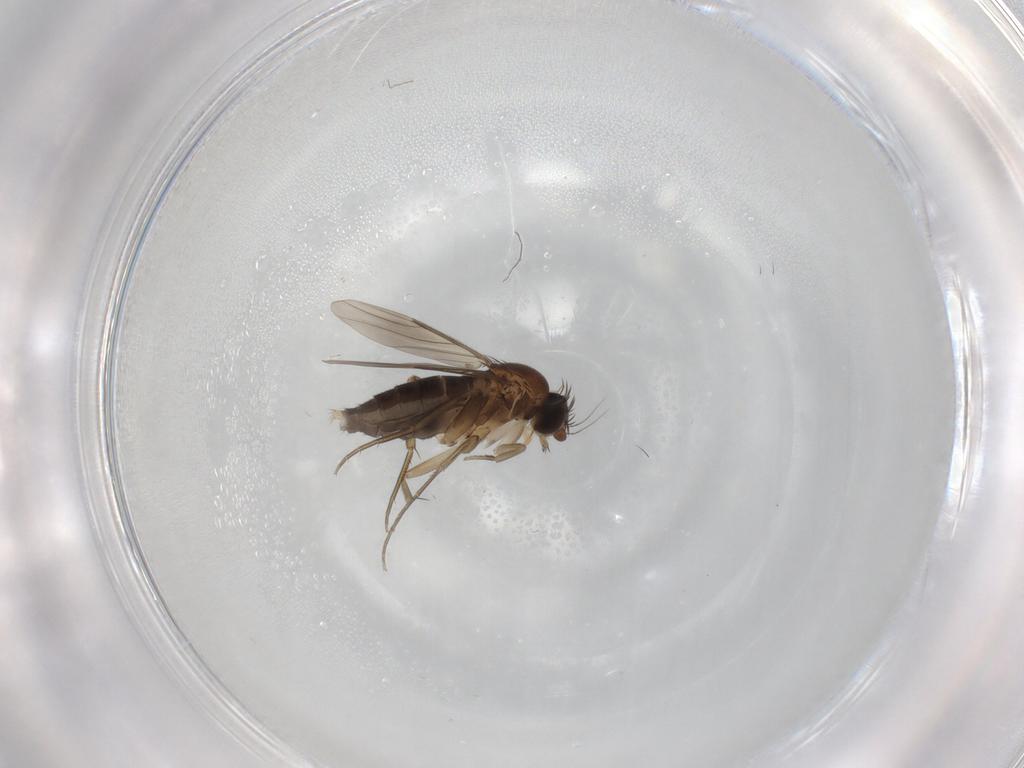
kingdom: Animalia
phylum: Arthropoda
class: Insecta
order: Diptera
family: Phoridae
